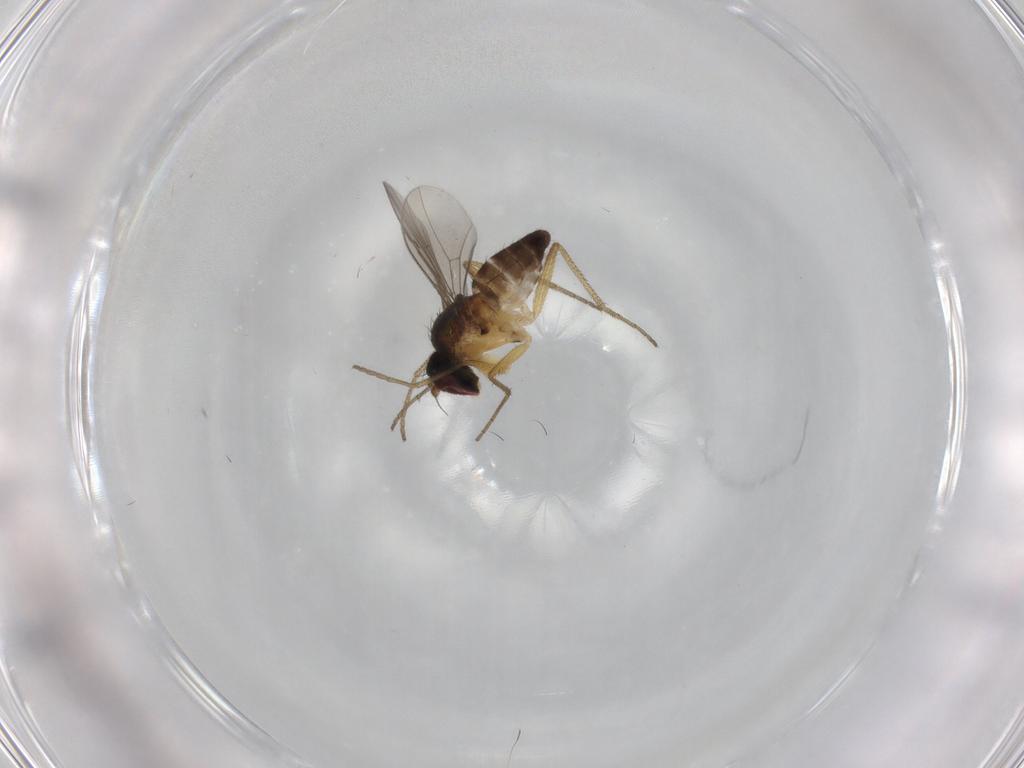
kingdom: Animalia
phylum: Arthropoda
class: Insecta
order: Diptera
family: Dolichopodidae
